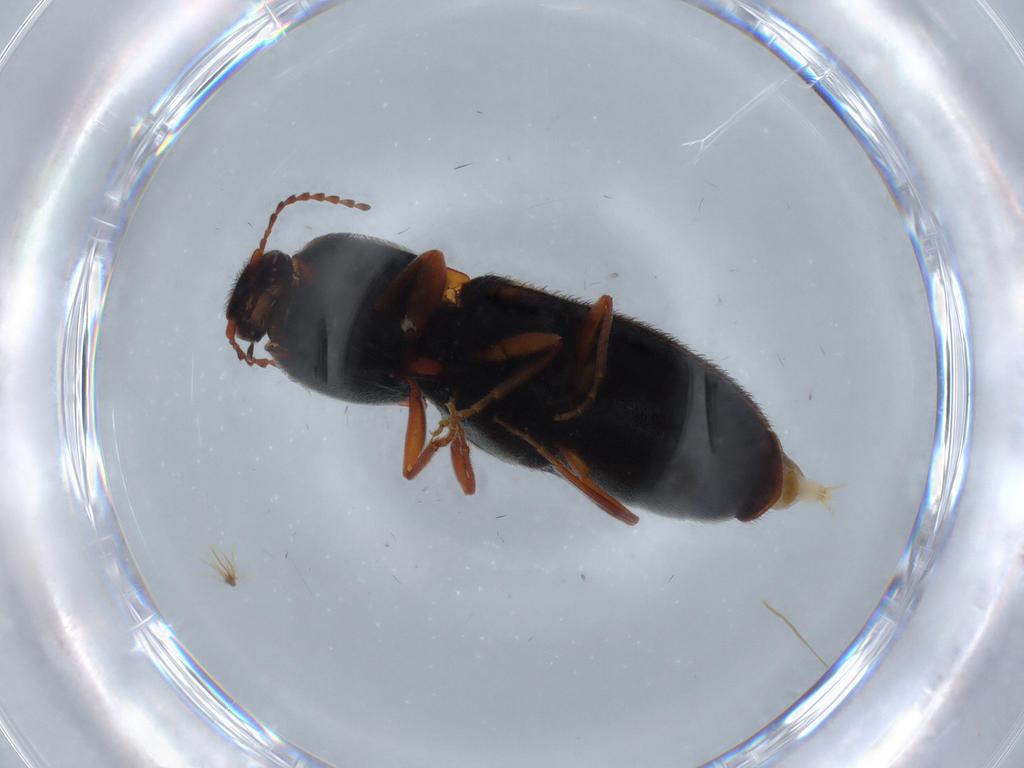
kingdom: Animalia
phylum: Arthropoda
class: Insecta
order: Coleoptera
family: Elateridae
